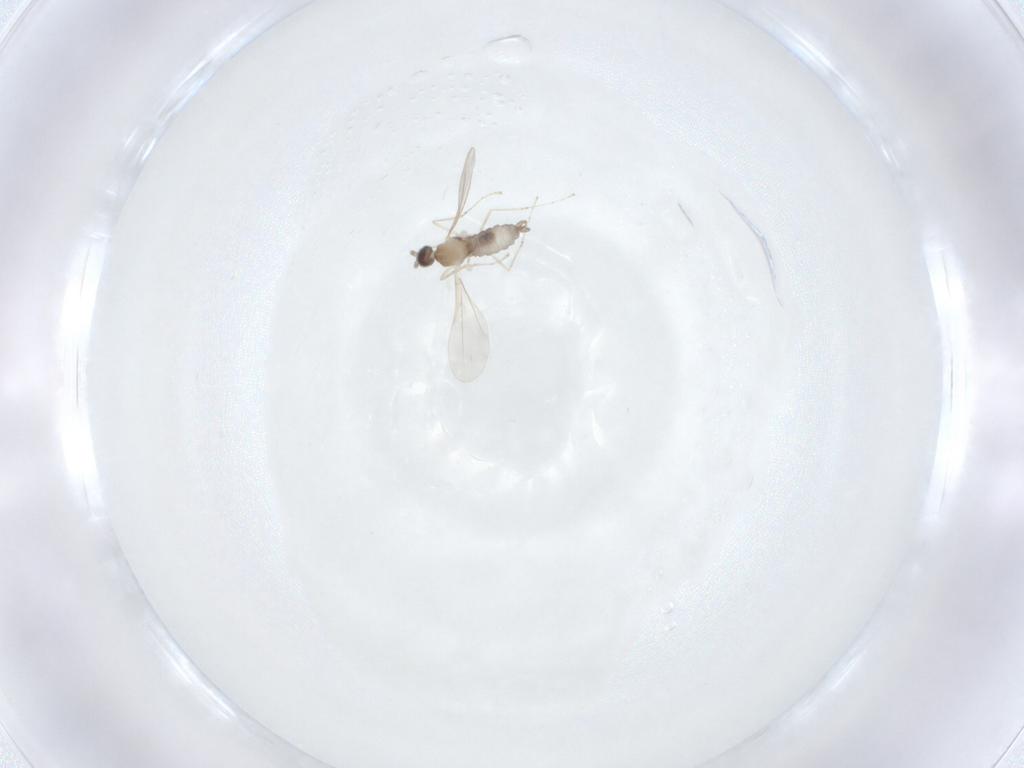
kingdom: Animalia
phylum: Arthropoda
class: Insecta
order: Diptera
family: Cecidomyiidae
